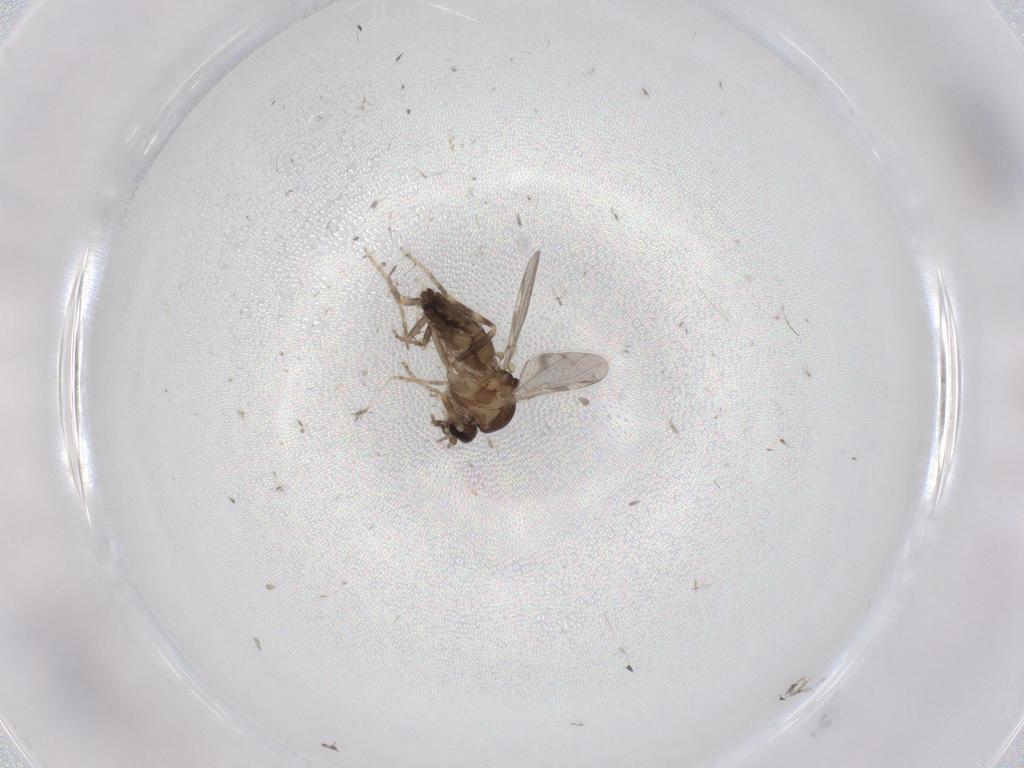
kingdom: Animalia
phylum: Arthropoda
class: Insecta
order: Diptera
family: Ceratopogonidae
